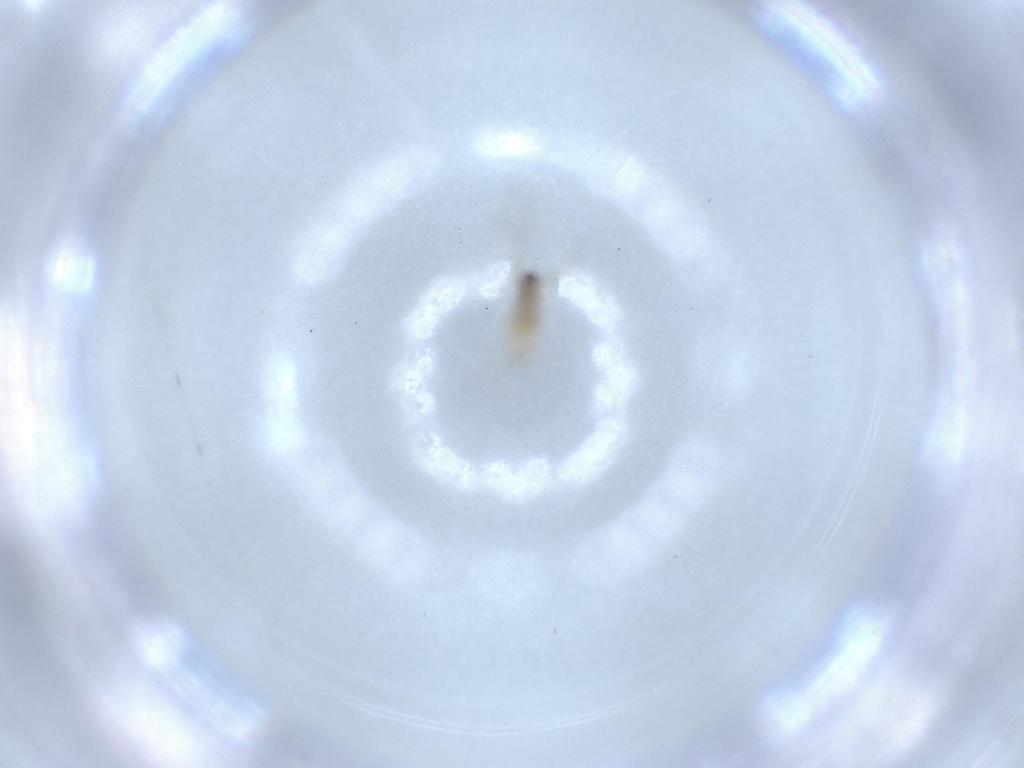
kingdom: Animalia
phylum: Arthropoda
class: Insecta
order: Diptera
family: Cecidomyiidae
